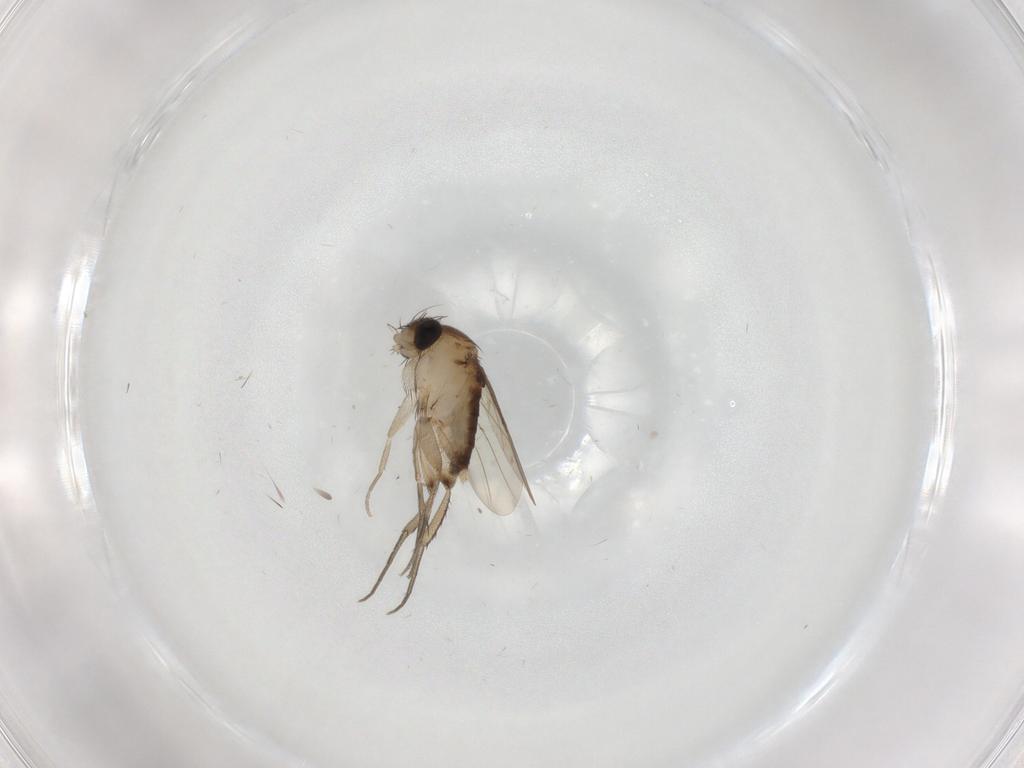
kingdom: Animalia
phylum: Arthropoda
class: Insecta
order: Diptera
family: Phoridae
